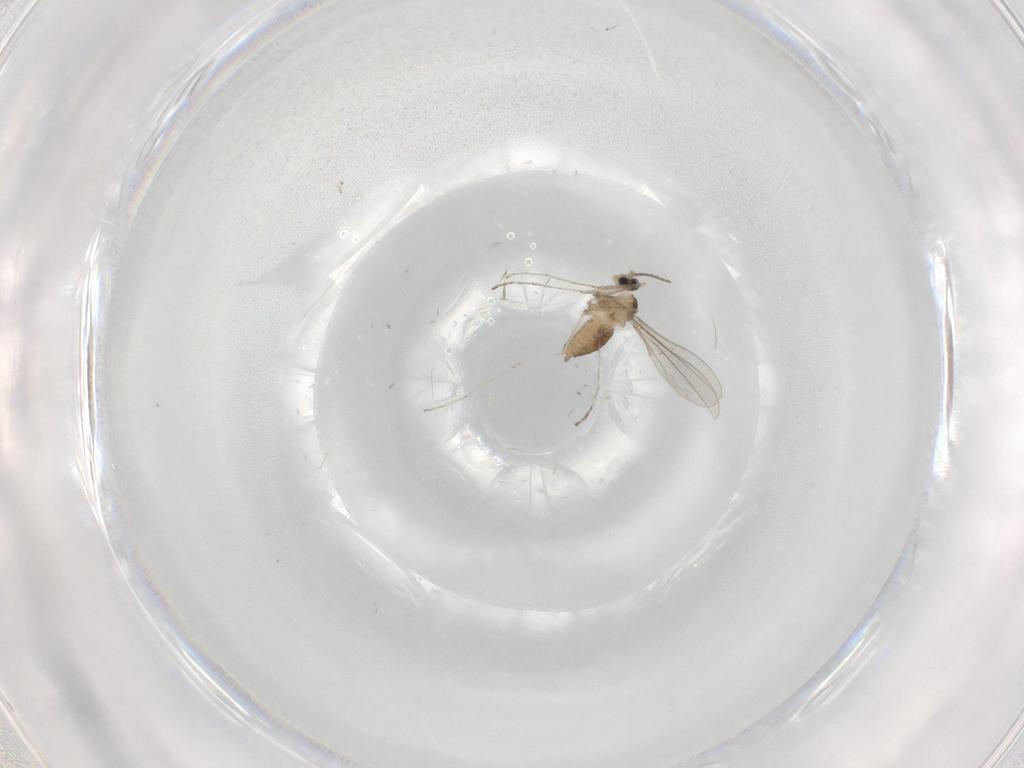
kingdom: Animalia
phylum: Arthropoda
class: Insecta
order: Diptera
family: Cecidomyiidae
